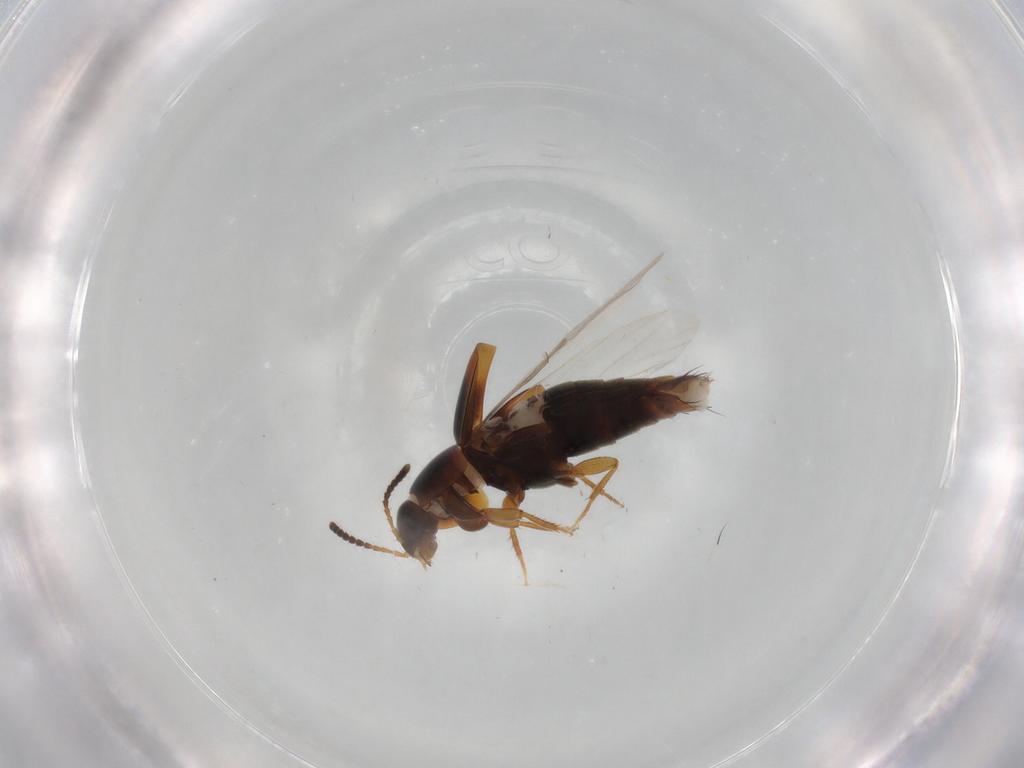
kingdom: Animalia
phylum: Arthropoda
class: Insecta
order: Coleoptera
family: Staphylinidae
